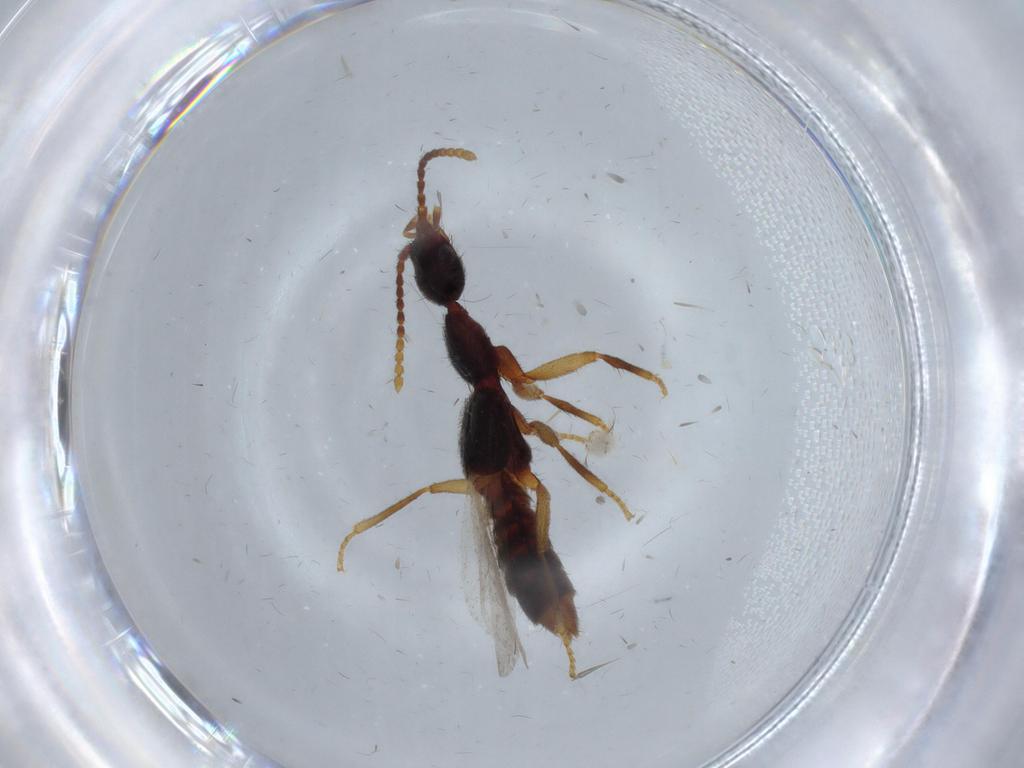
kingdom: Animalia
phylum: Arthropoda
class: Insecta
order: Coleoptera
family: Staphylinidae
